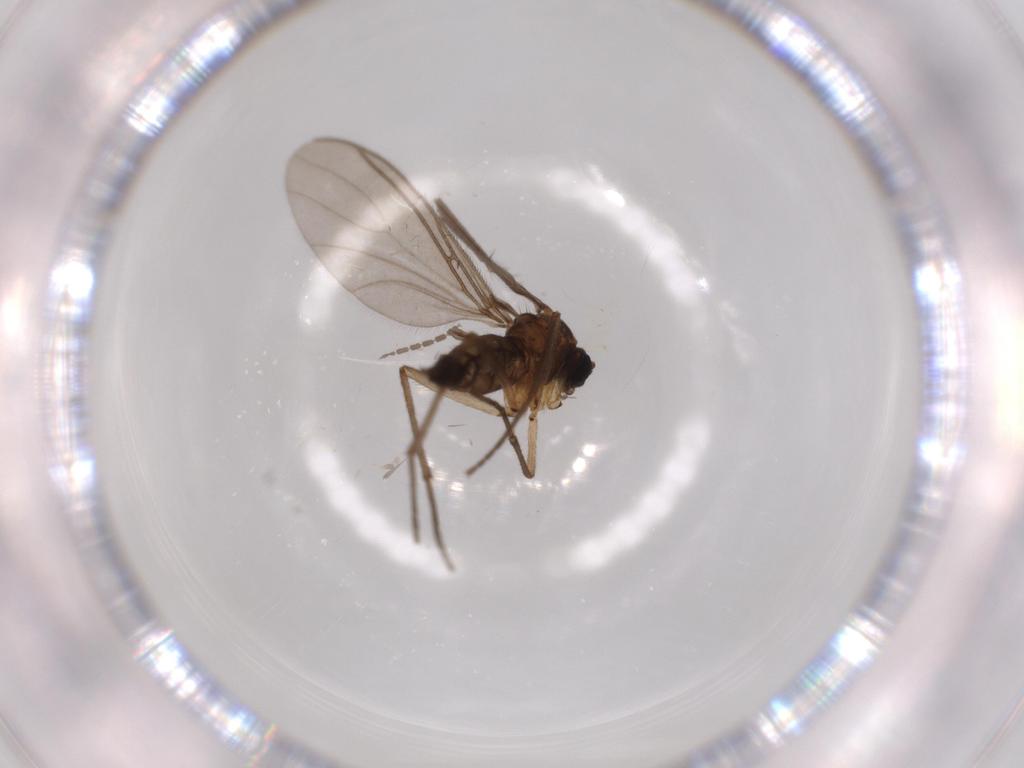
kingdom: Animalia
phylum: Arthropoda
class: Insecta
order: Diptera
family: Sciaridae
